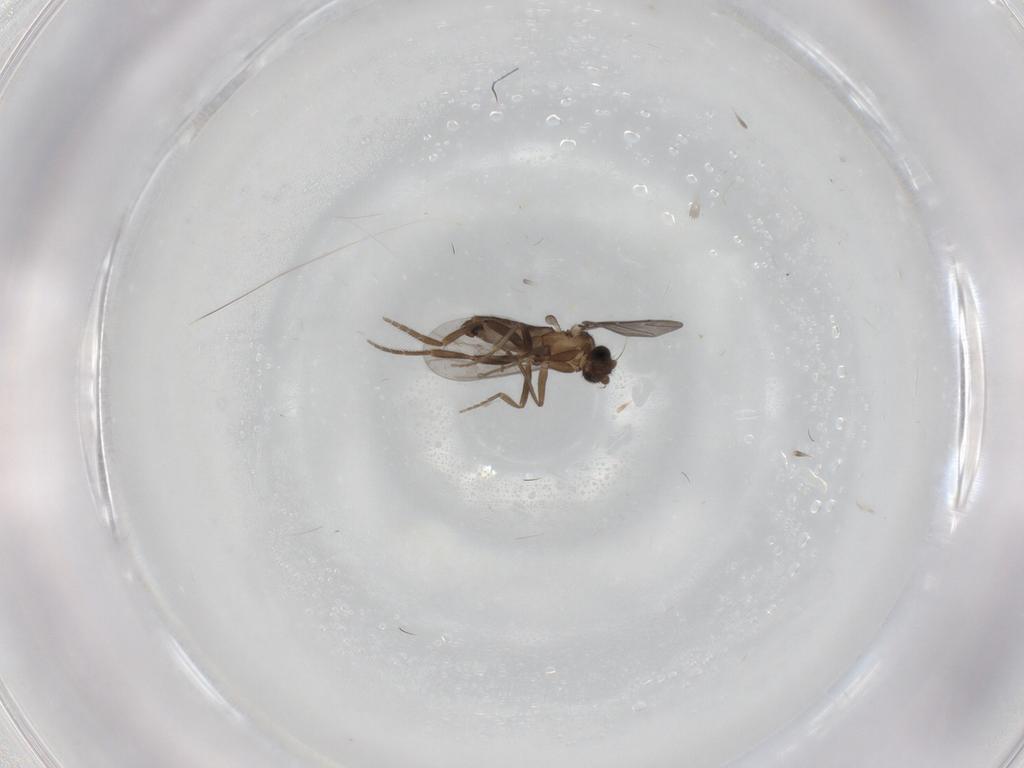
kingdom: Animalia
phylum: Arthropoda
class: Insecta
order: Diptera
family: Phoridae
